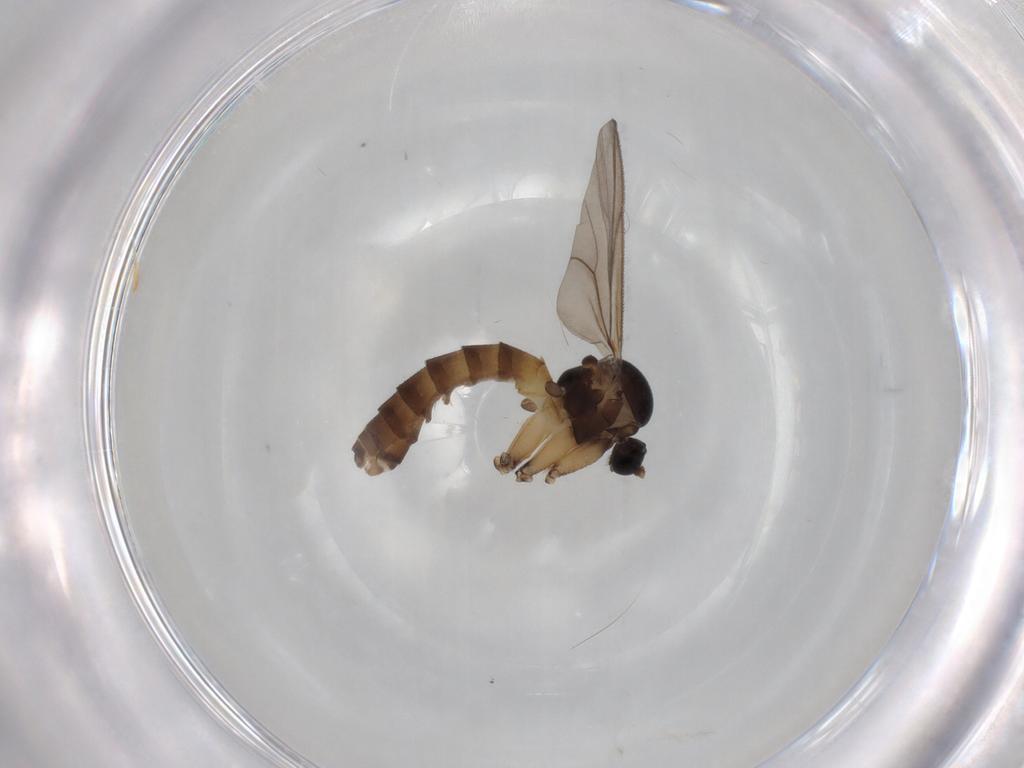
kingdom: Animalia
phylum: Arthropoda
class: Insecta
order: Diptera
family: Mycetophilidae
